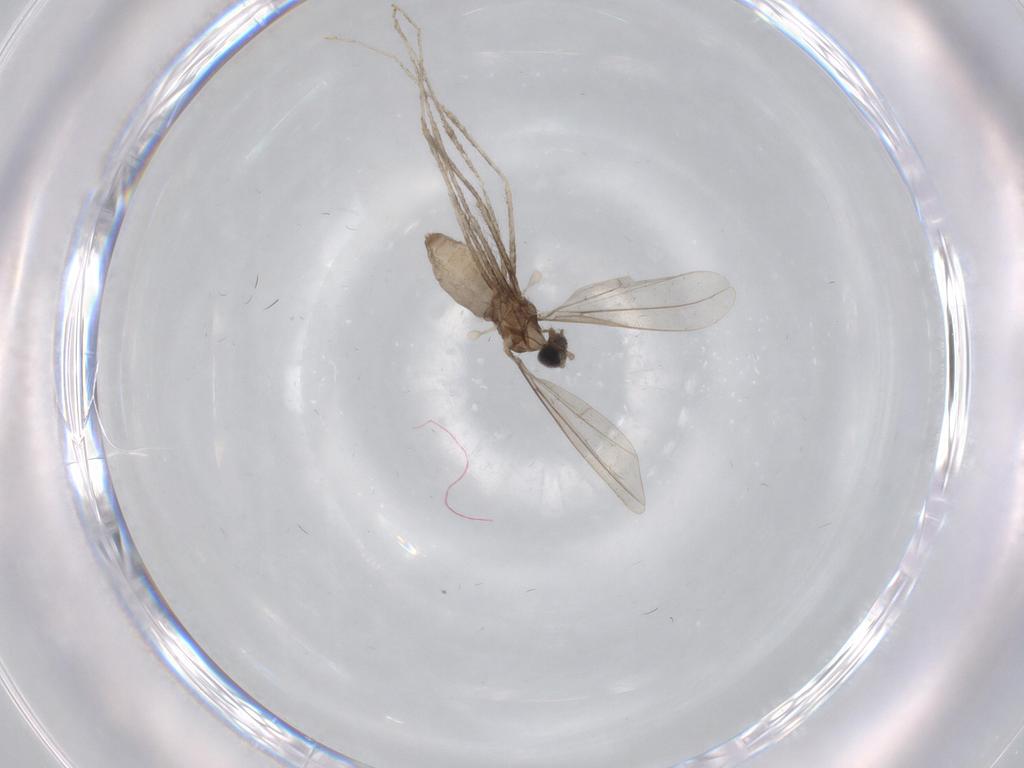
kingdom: Animalia
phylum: Arthropoda
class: Insecta
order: Diptera
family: Cecidomyiidae
